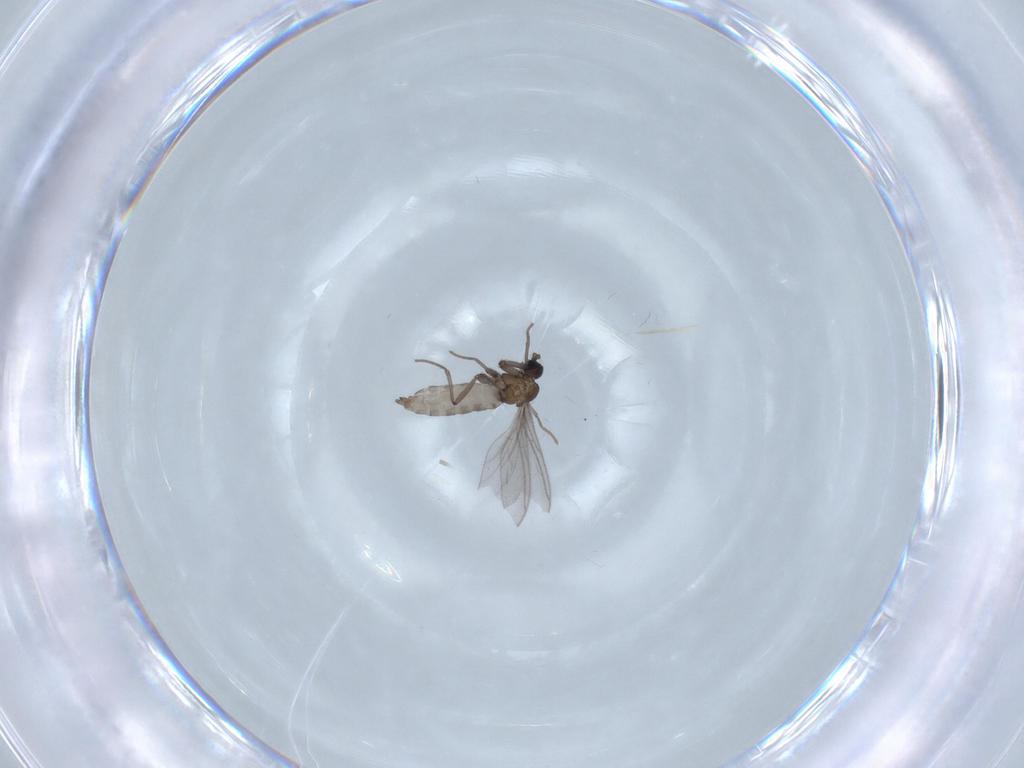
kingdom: Animalia
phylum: Arthropoda
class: Insecta
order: Diptera
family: Sciaridae
